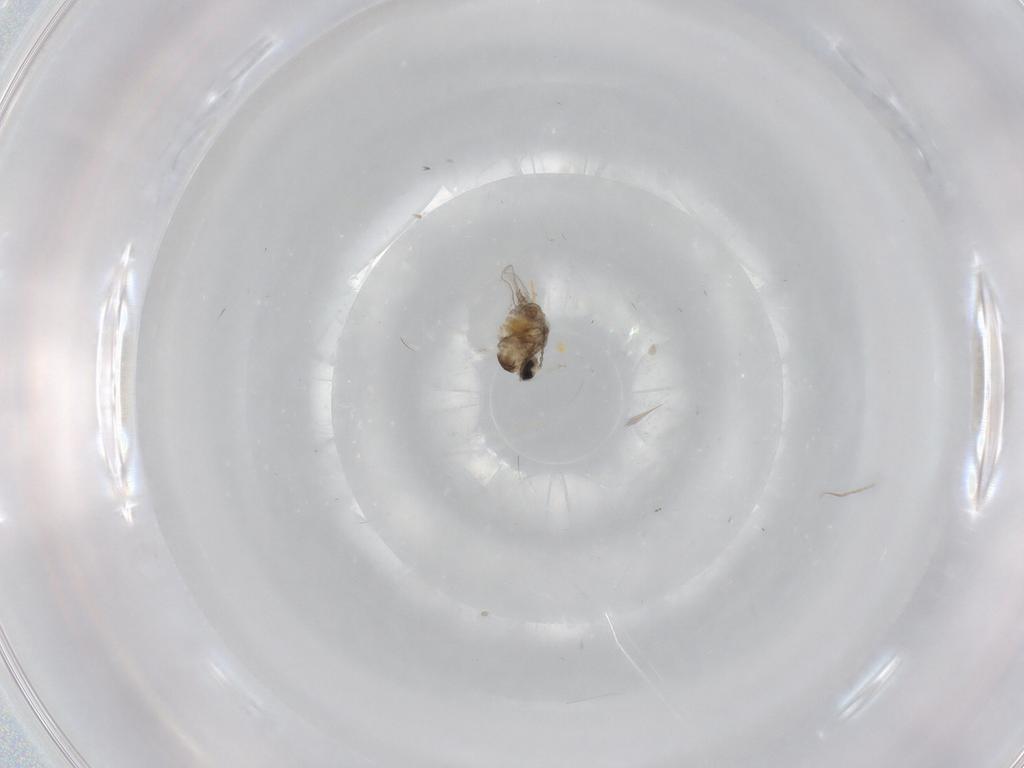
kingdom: Animalia
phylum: Arthropoda
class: Insecta
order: Diptera
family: Cecidomyiidae
